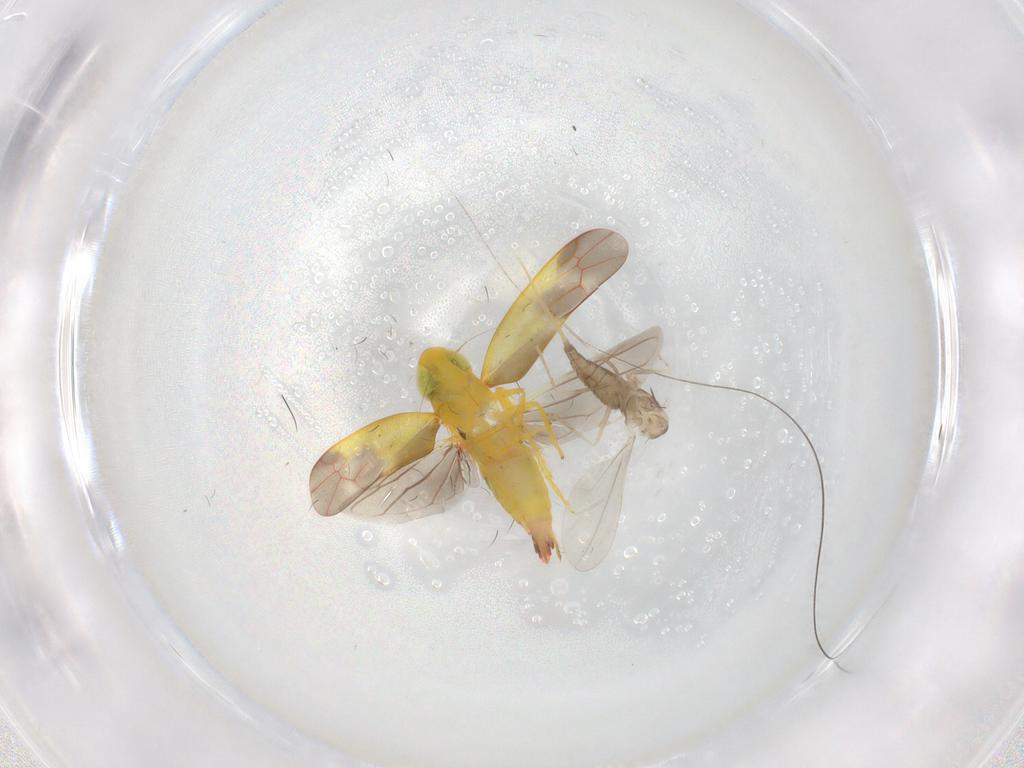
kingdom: Animalia
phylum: Arthropoda
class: Insecta
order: Hemiptera
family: Cicadellidae
